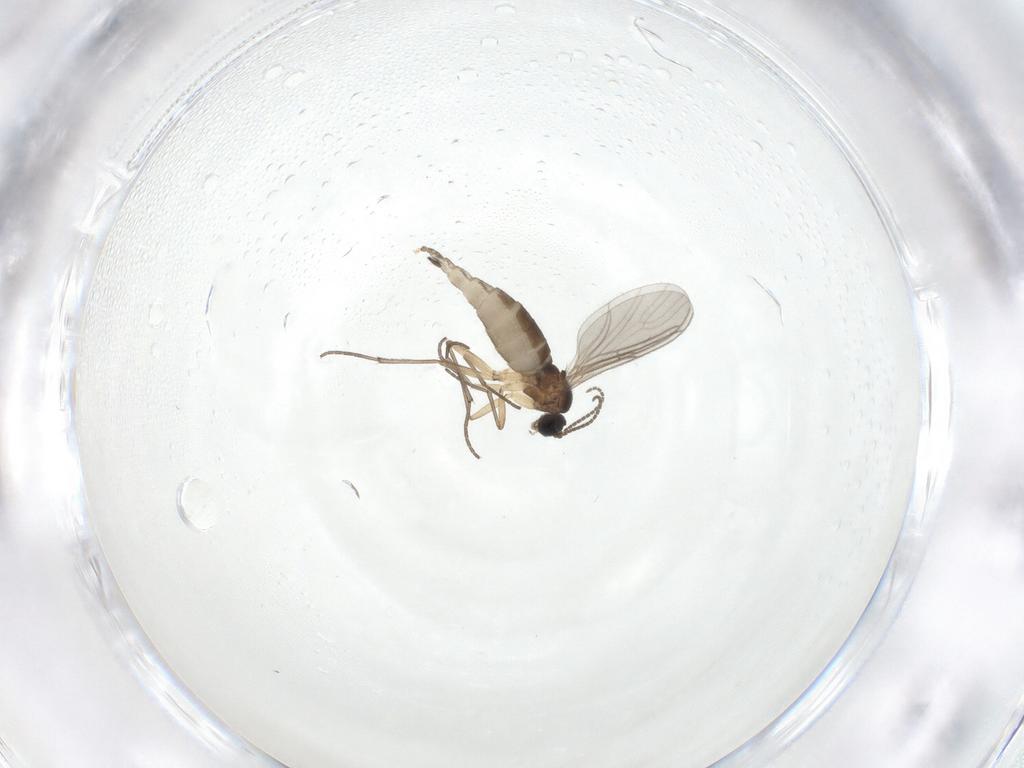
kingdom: Animalia
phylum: Arthropoda
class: Insecta
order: Diptera
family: Sciaridae
